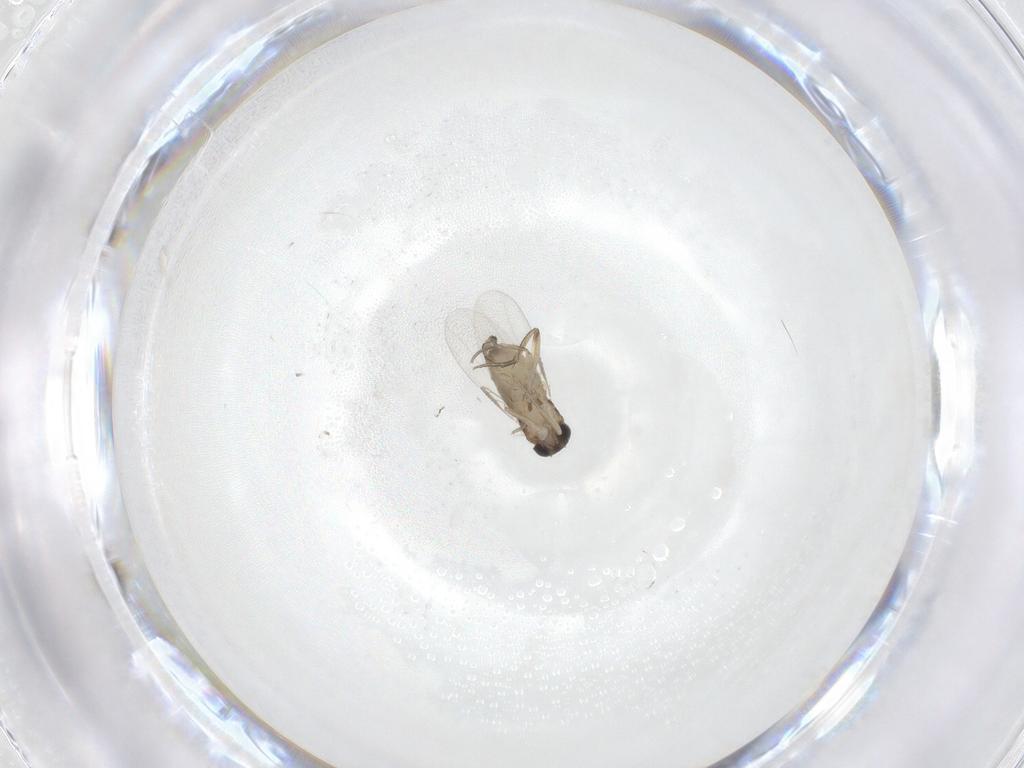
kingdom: Animalia
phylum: Arthropoda
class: Insecta
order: Diptera
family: Phoridae
